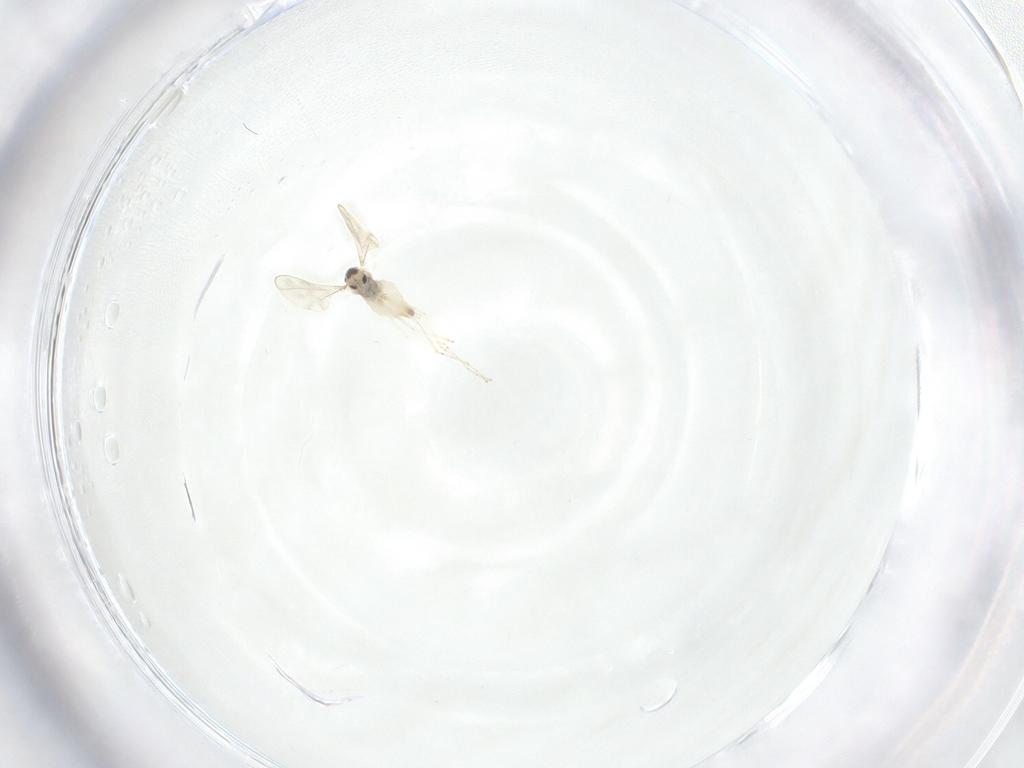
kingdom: Animalia
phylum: Arthropoda
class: Insecta
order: Diptera
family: Cecidomyiidae
